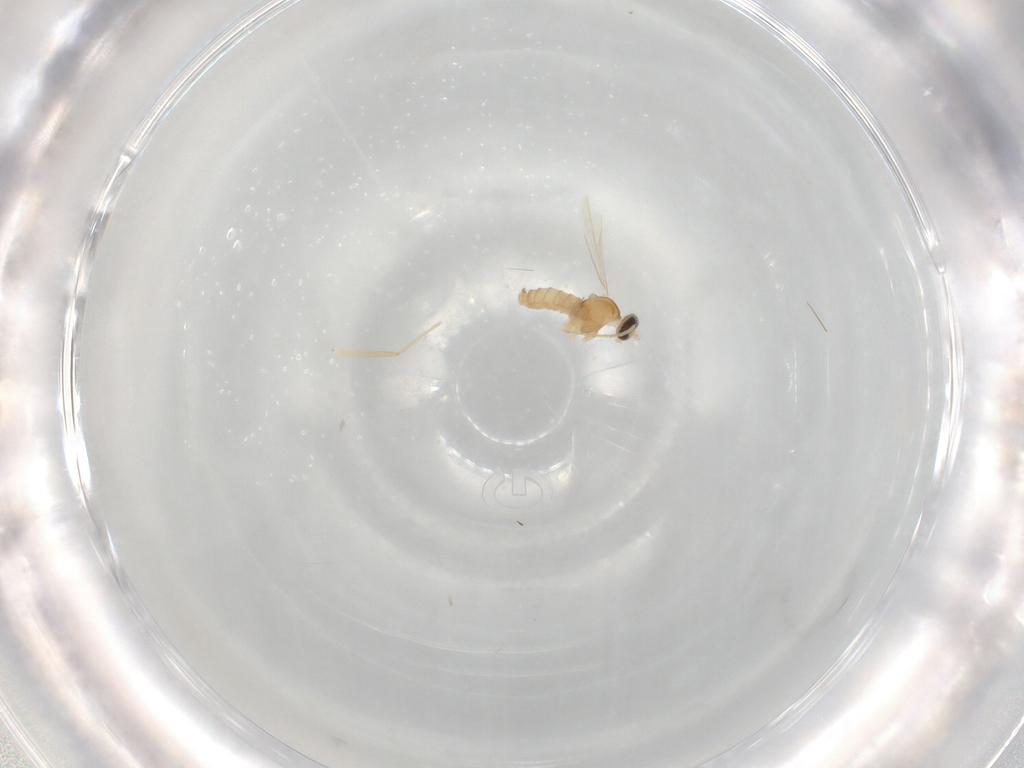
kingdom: Animalia
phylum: Arthropoda
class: Insecta
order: Diptera
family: Cecidomyiidae
